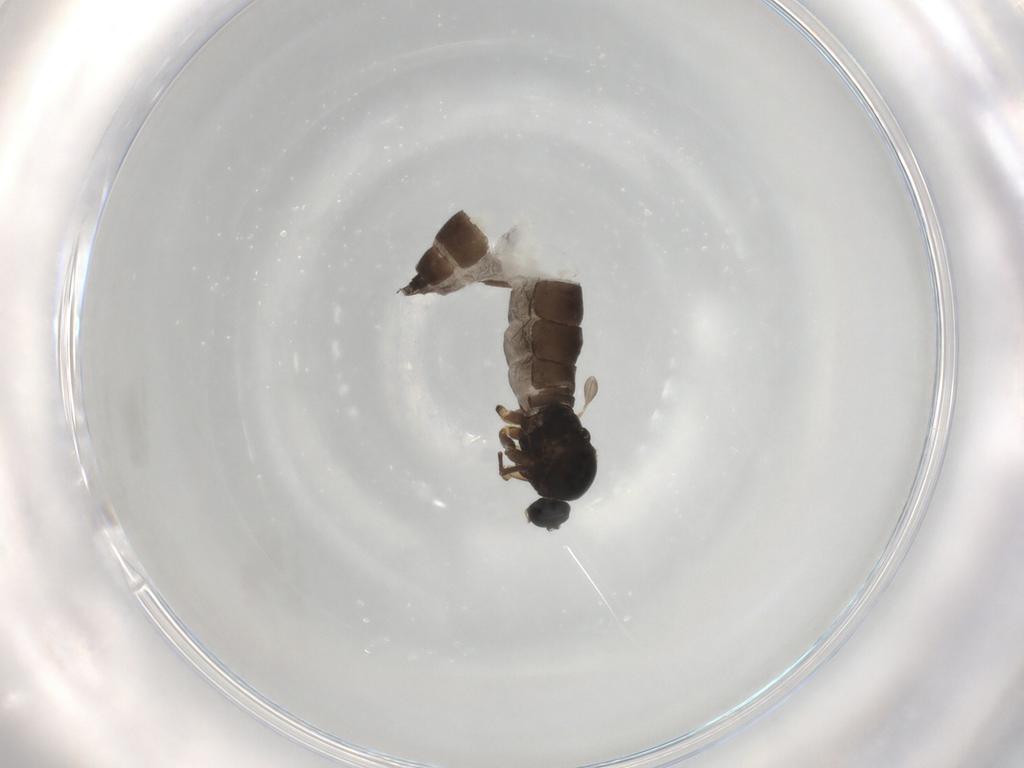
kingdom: Animalia
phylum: Arthropoda
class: Insecta
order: Diptera
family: Sciaridae
